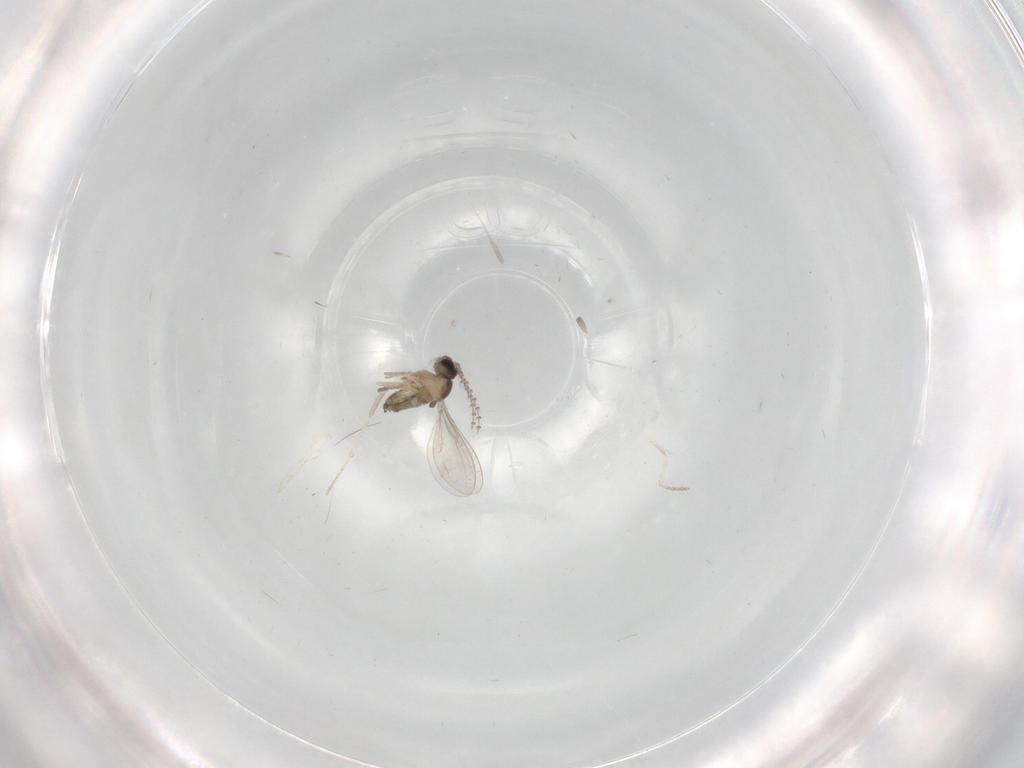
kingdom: Animalia
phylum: Arthropoda
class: Insecta
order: Diptera
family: Cecidomyiidae
